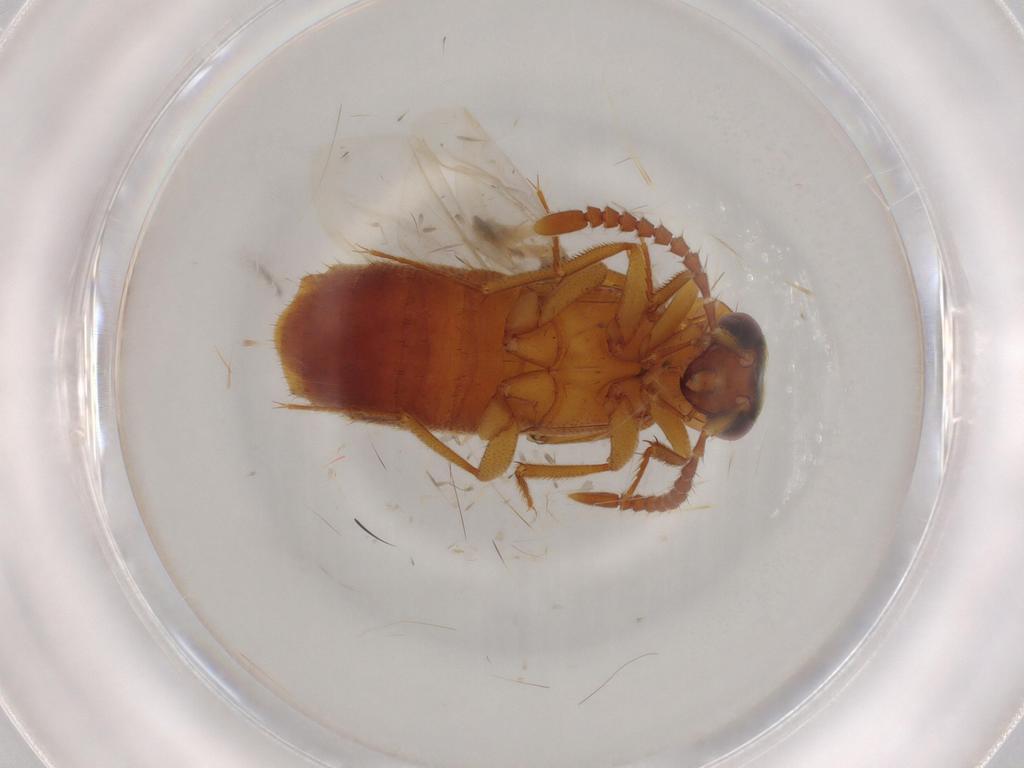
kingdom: Animalia
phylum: Arthropoda
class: Insecta
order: Coleoptera
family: Staphylinidae
